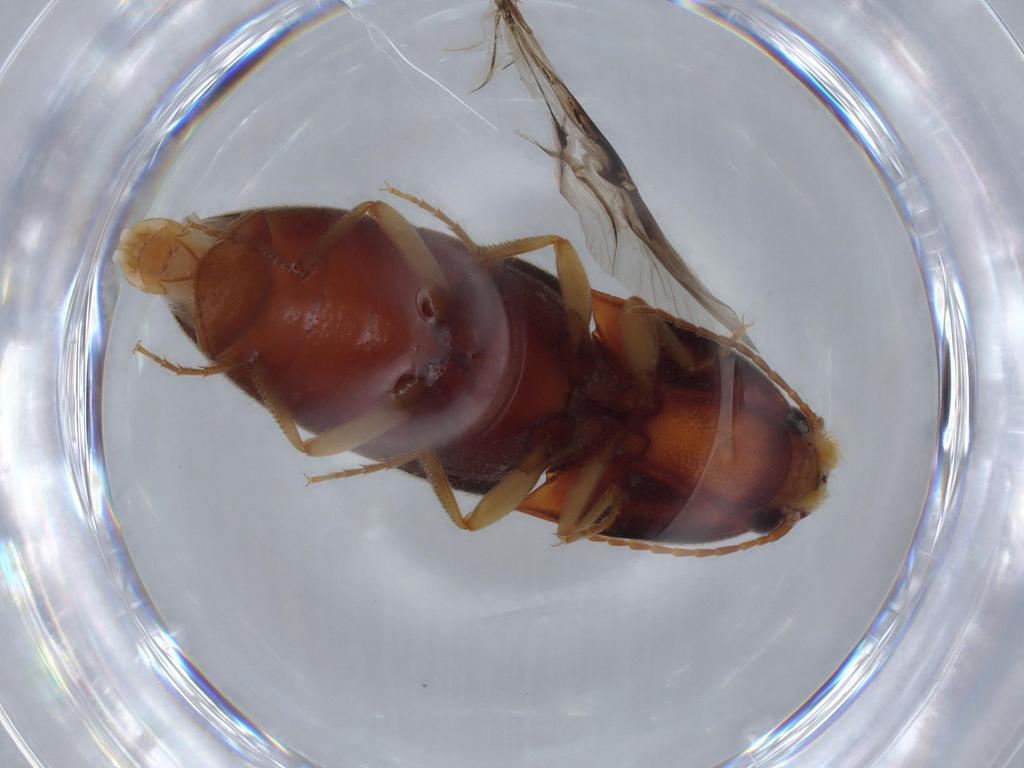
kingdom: Animalia
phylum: Arthropoda
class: Insecta
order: Coleoptera
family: Elateridae
